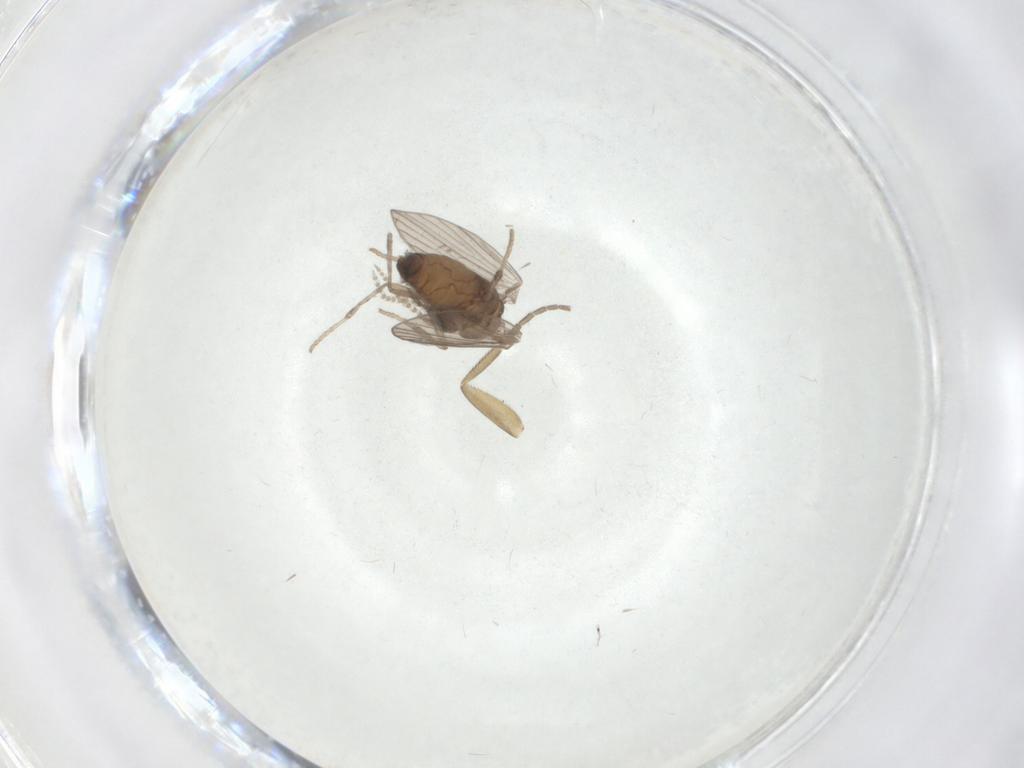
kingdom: Animalia
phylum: Arthropoda
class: Insecta
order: Diptera
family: Phoridae
